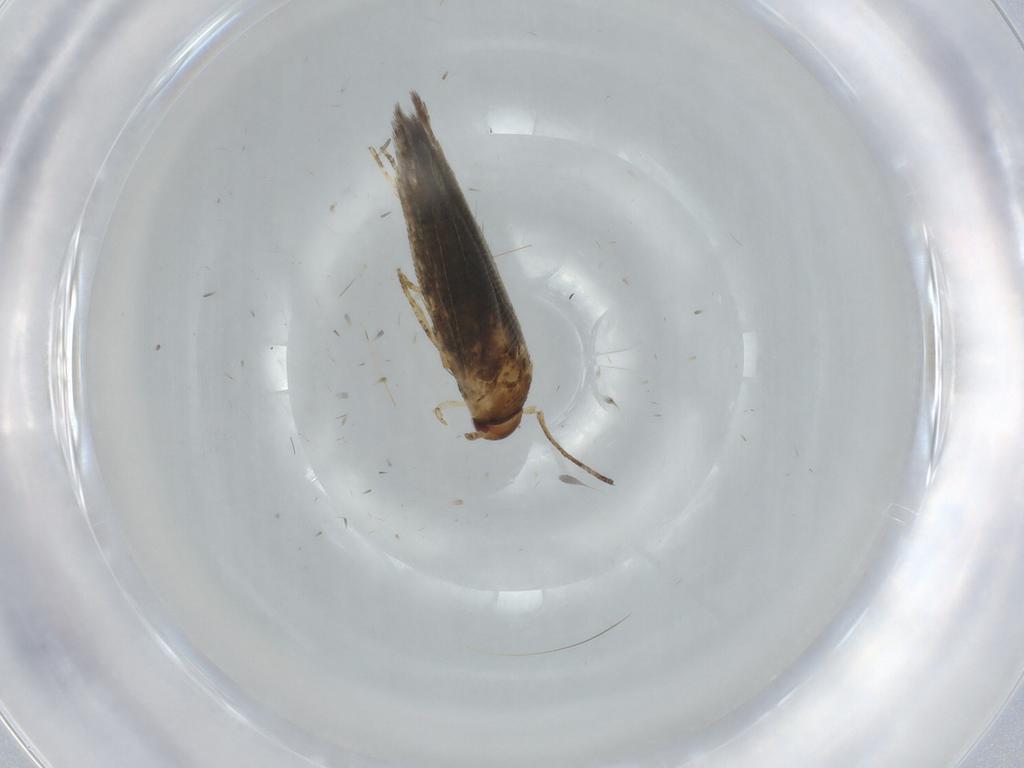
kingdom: Animalia
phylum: Arthropoda
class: Insecta
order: Lepidoptera
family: Momphidae
